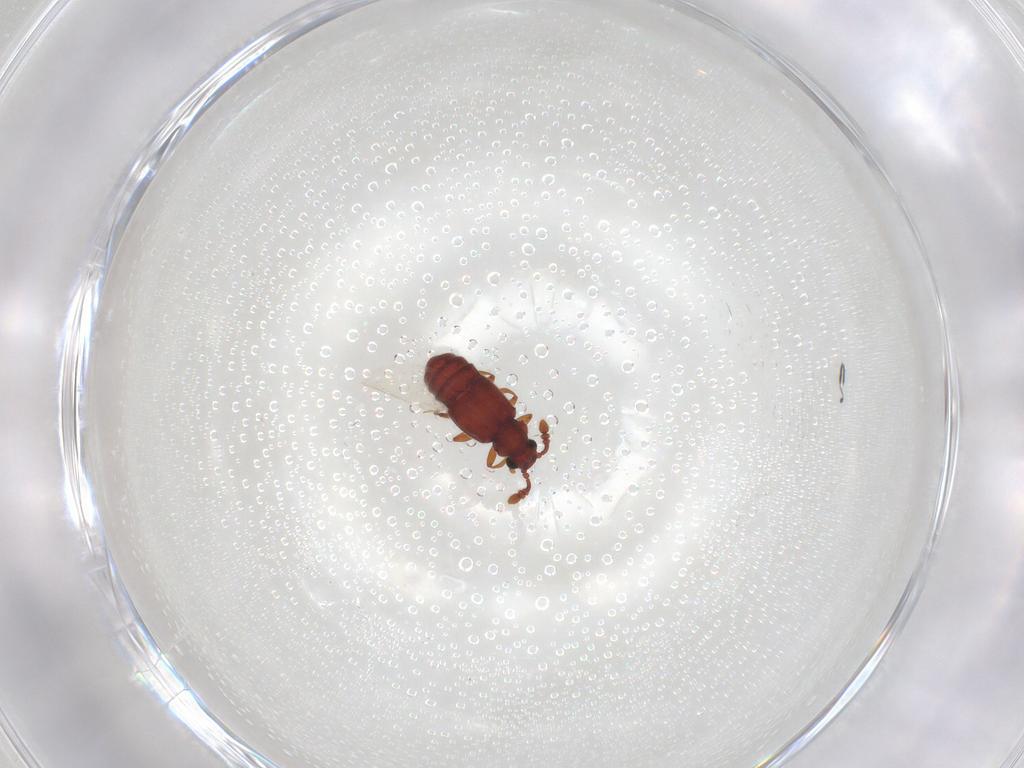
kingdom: Animalia
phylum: Arthropoda
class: Insecta
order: Coleoptera
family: Staphylinidae
